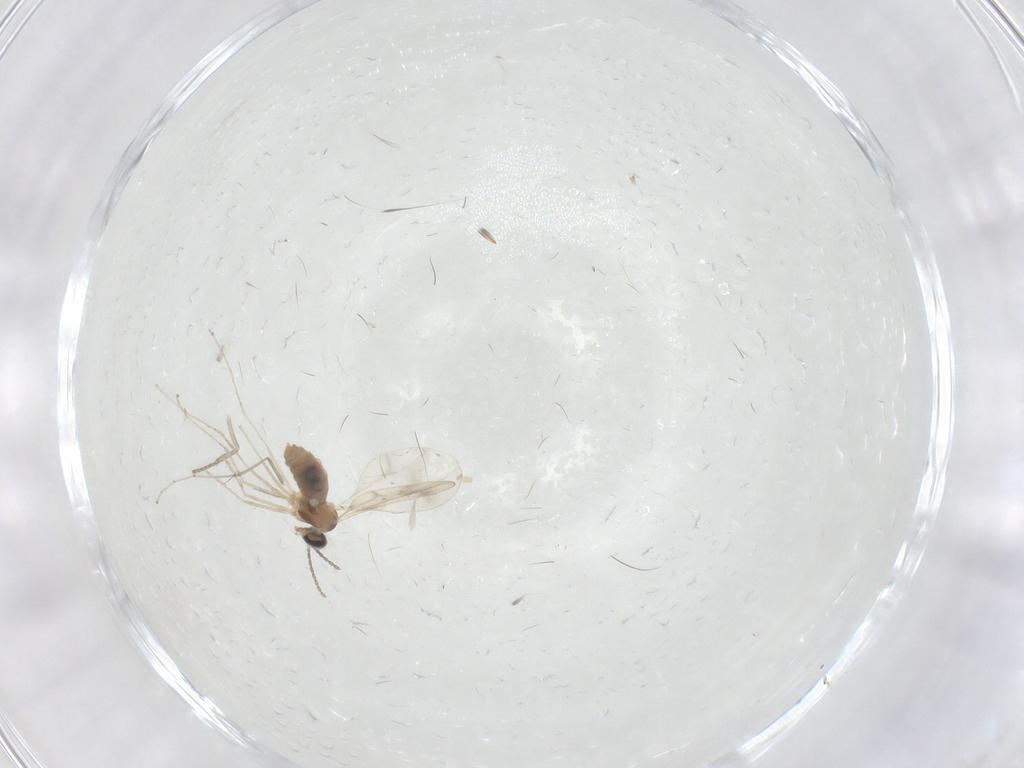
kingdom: Animalia
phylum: Arthropoda
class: Insecta
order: Diptera
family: Psychodidae
